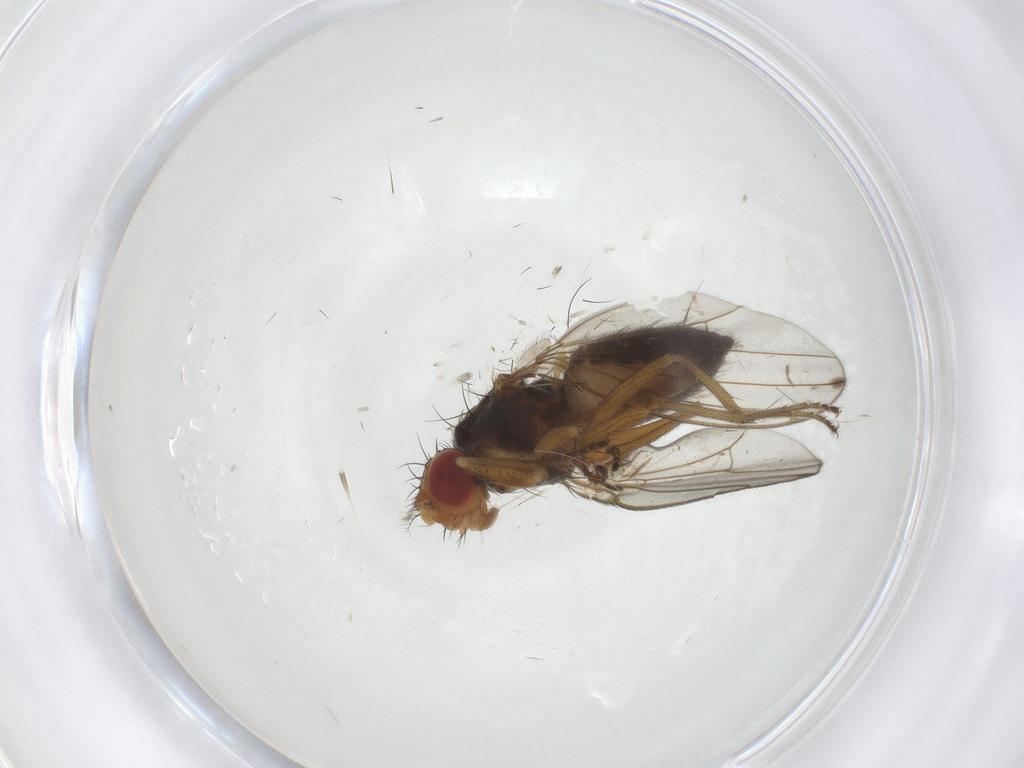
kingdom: Animalia
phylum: Arthropoda
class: Insecta
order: Diptera
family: Drosophilidae
